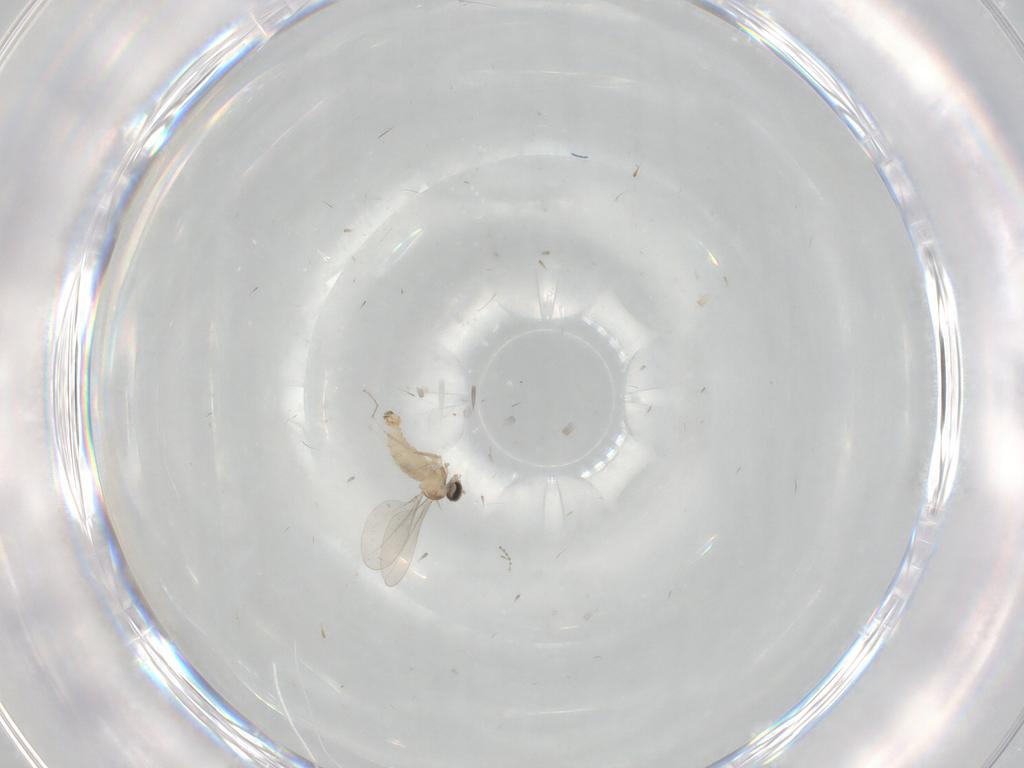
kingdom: Animalia
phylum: Arthropoda
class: Insecta
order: Diptera
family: Cecidomyiidae
